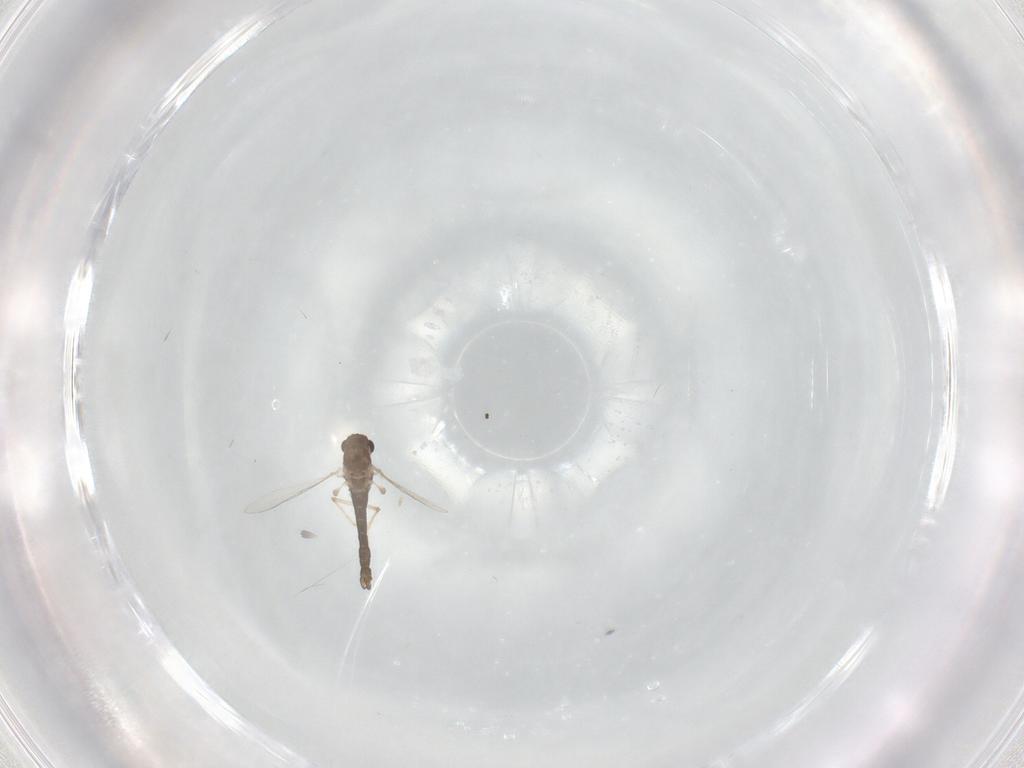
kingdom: Animalia
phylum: Arthropoda
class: Insecta
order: Diptera
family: Chironomidae
